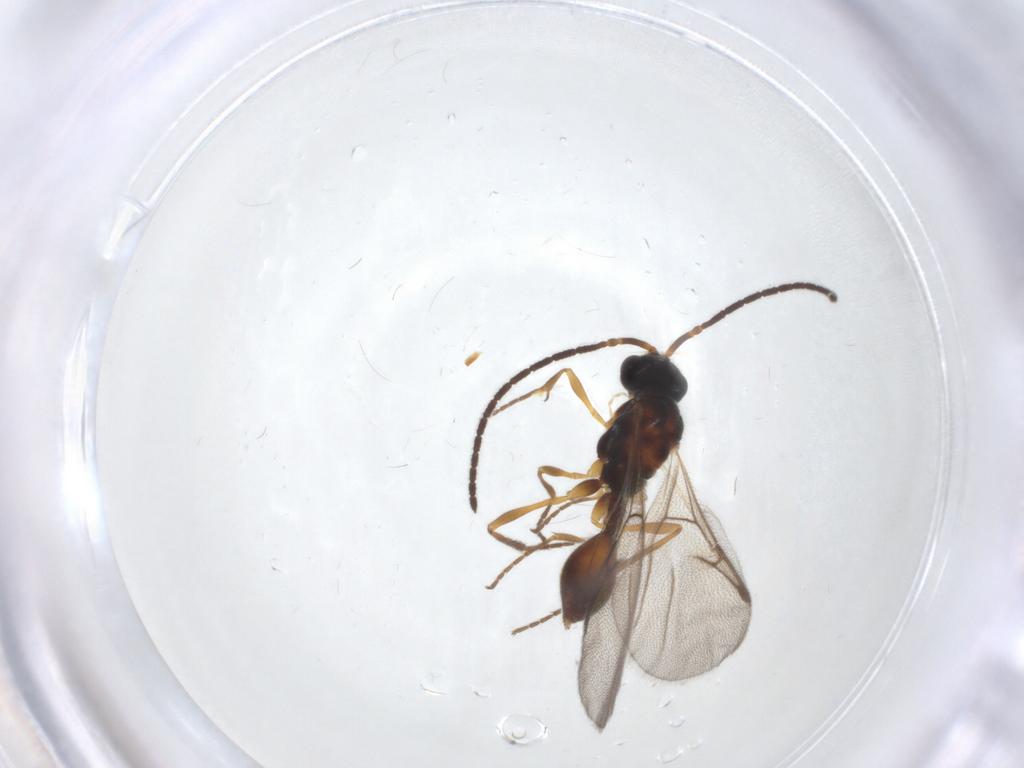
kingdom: Animalia
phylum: Arthropoda
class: Insecta
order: Hymenoptera
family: Diapriidae
